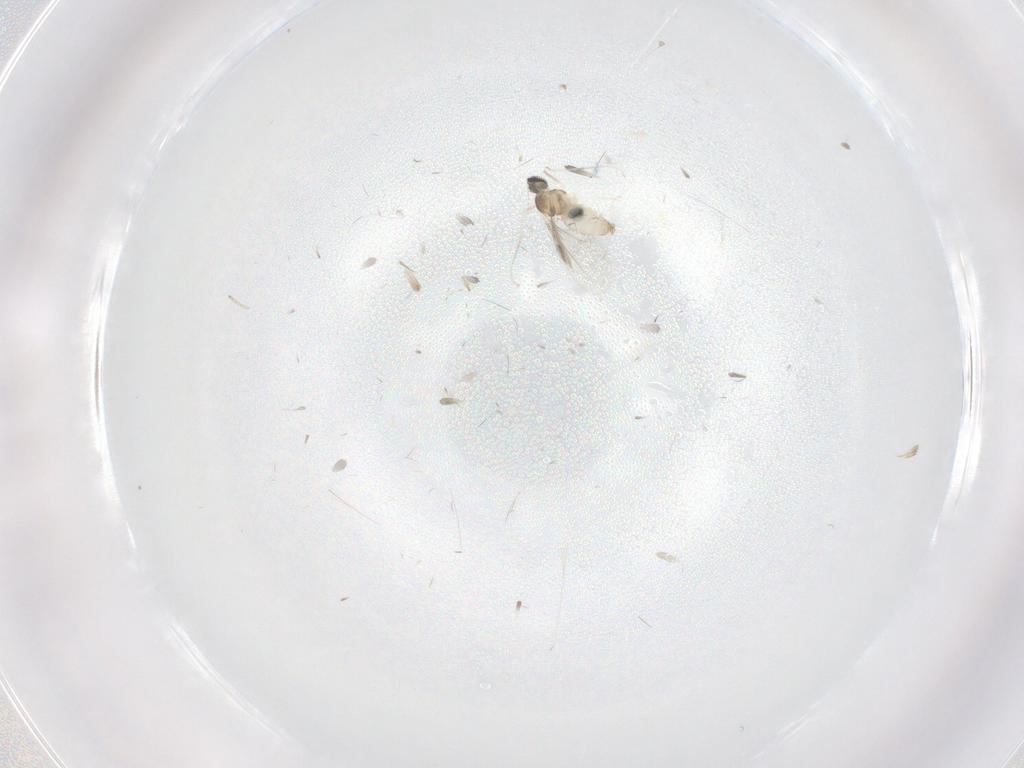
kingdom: Animalia
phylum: Arthropoda
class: Insecta
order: Diptera
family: Cecidomyiidae
